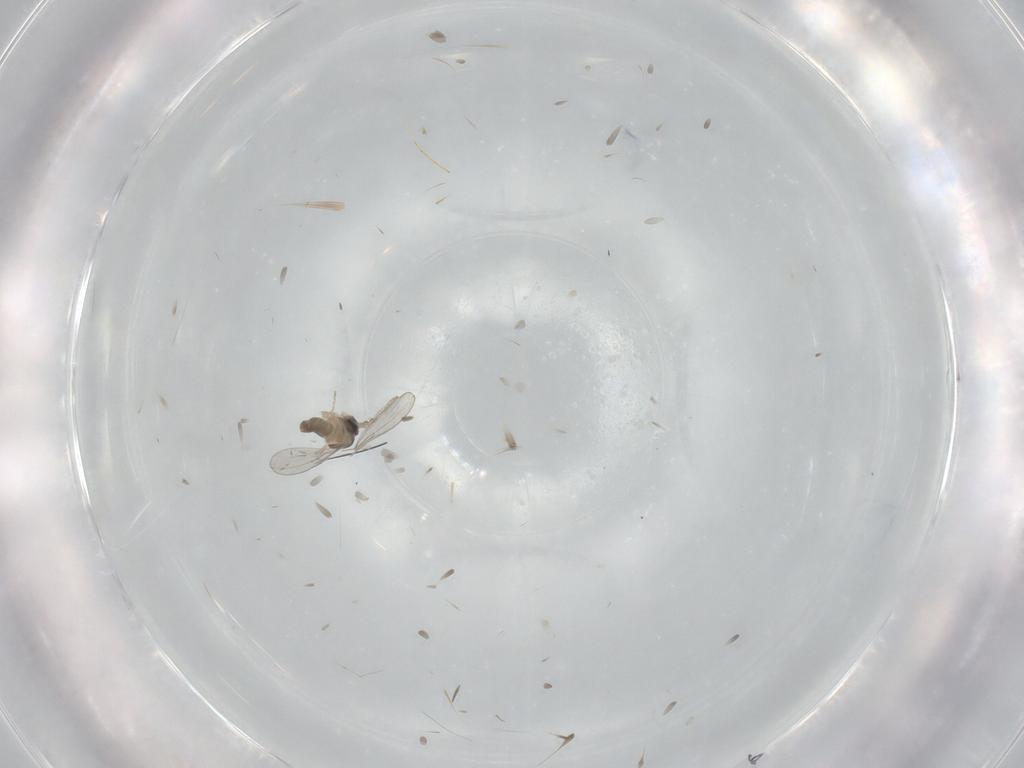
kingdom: Animalia
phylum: Arthropoda
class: Insecta
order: Diptera
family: Cecidomyiidae
